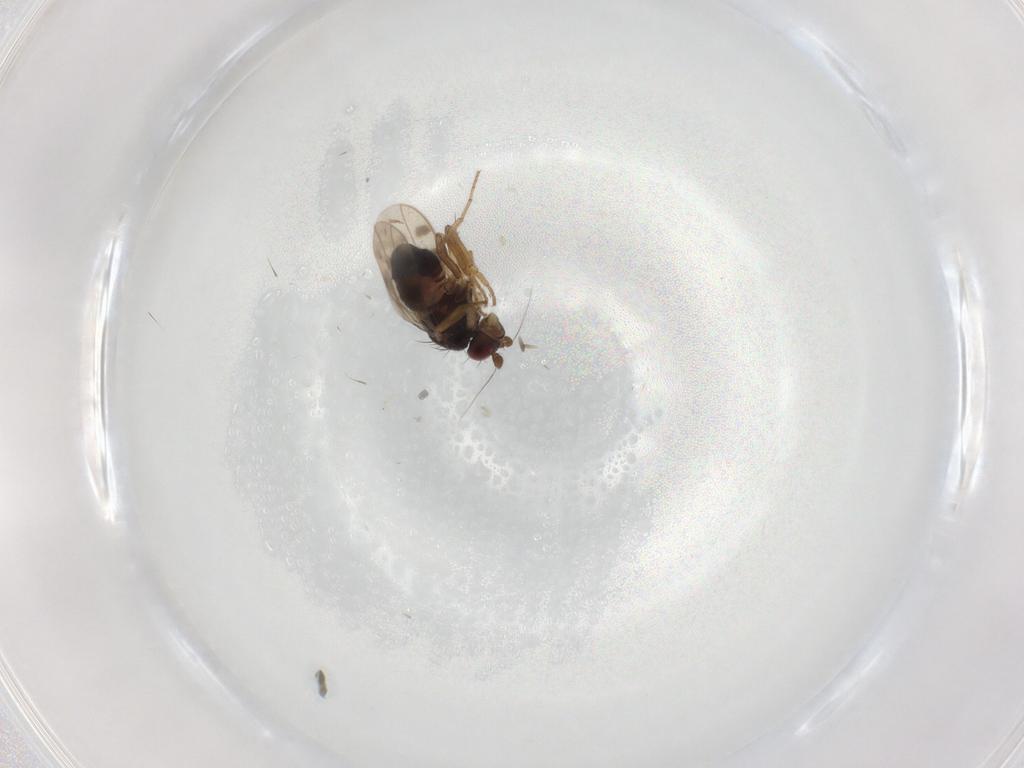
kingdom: Animalia
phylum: Arthropoda
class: Insecta
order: Diptera
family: Sphaeroceridae
